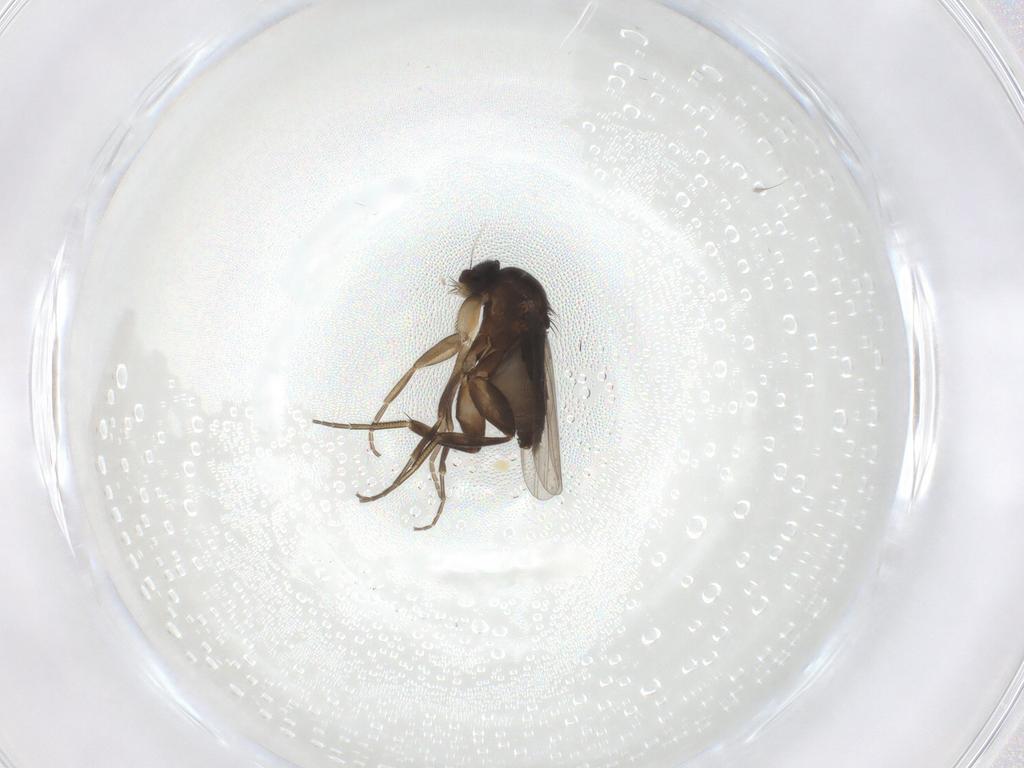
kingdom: Animalia
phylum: Arthropoda
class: Insecta
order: Diptera
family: Phoridae
